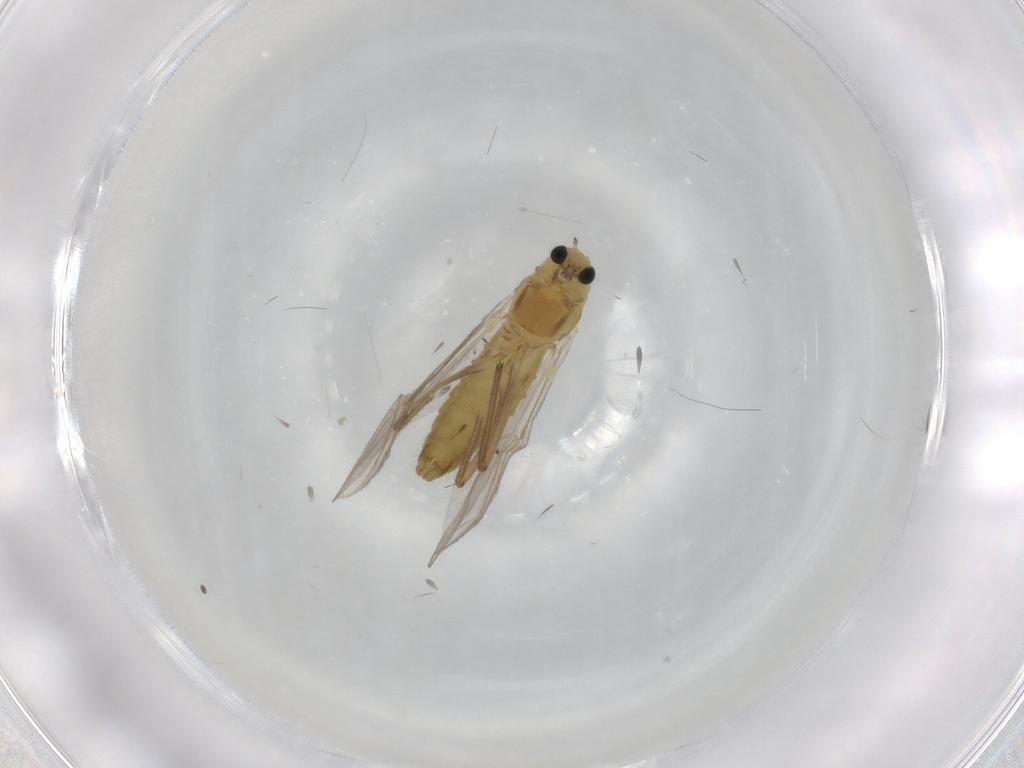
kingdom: Animalia
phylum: Arthropoda
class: Insecta
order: Diptera
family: Chironomidae
